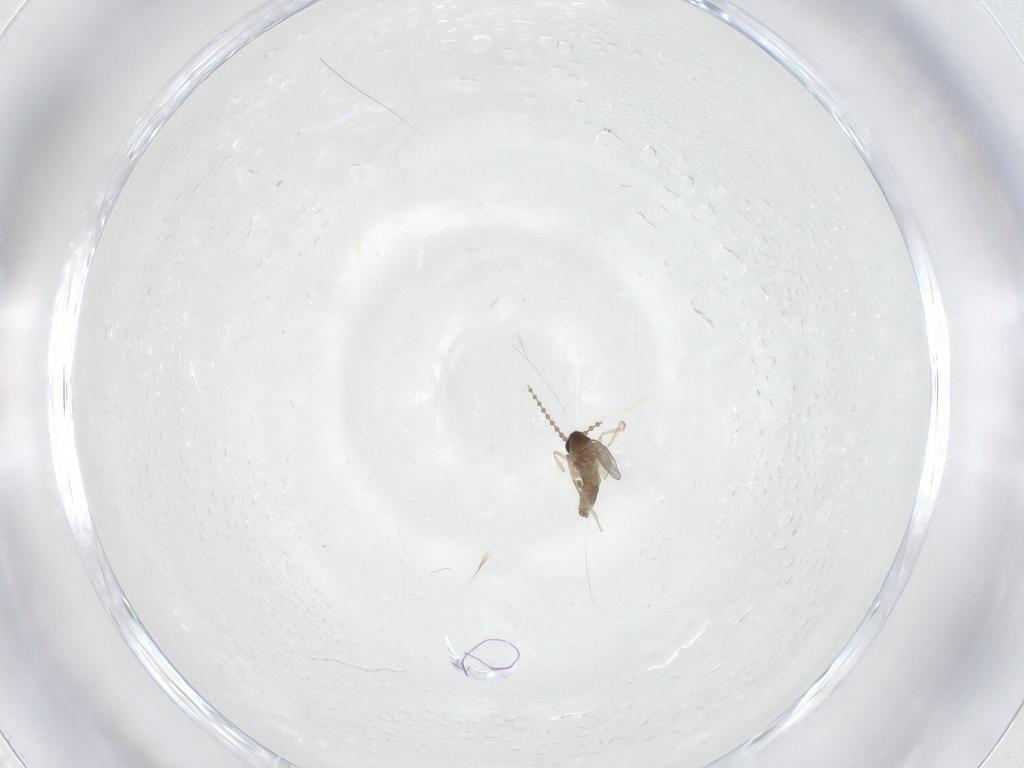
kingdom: Animalia
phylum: Arthropoda
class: Insecta
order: Diptera
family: Cecidomyiidae
